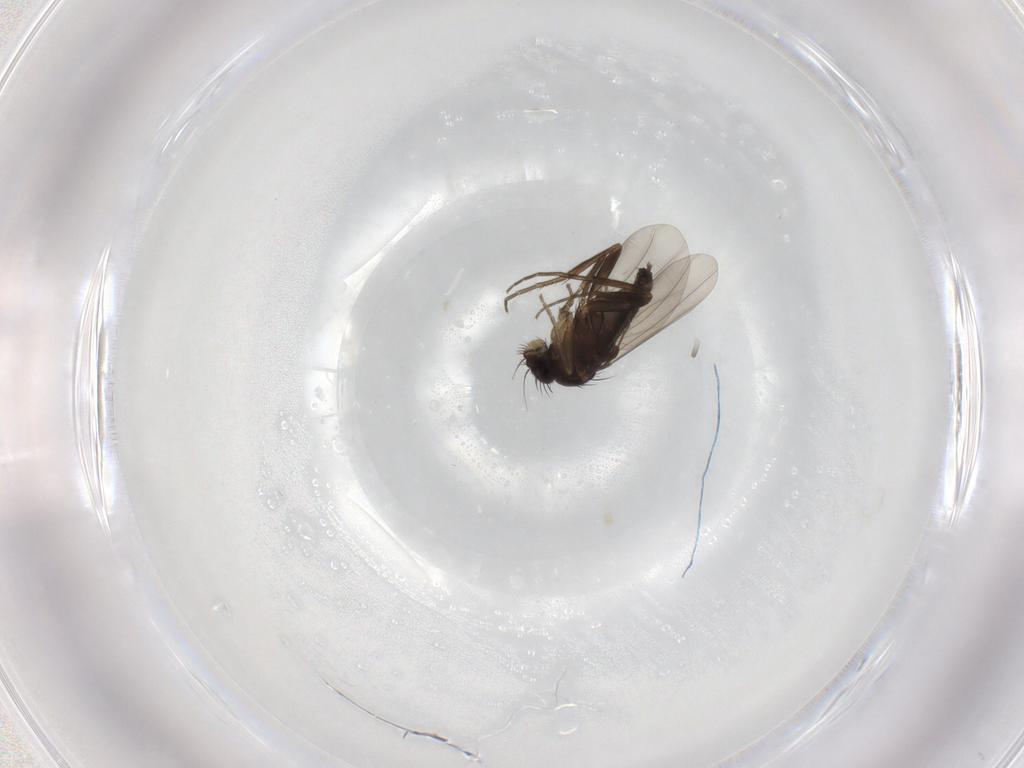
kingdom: Animalia
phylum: Arthropoda
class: Insecta
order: Diptera
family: Phoridae
